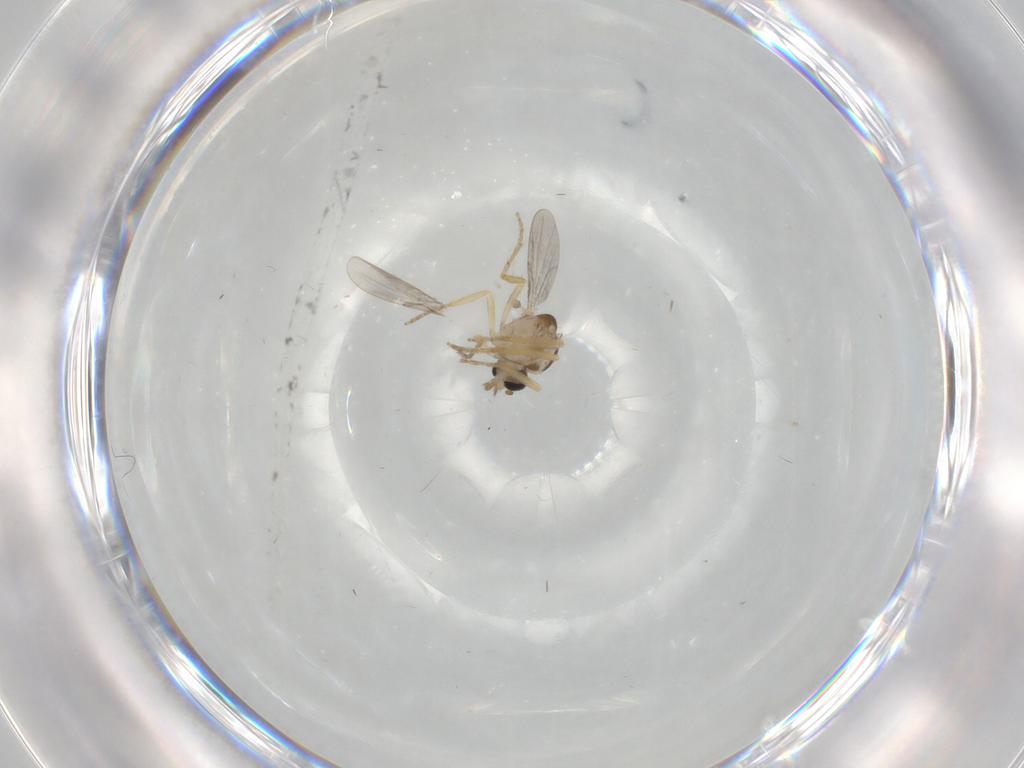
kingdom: Animalia
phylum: Arthropoda
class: Insecta
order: Diptera
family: Ceratopogonidae
